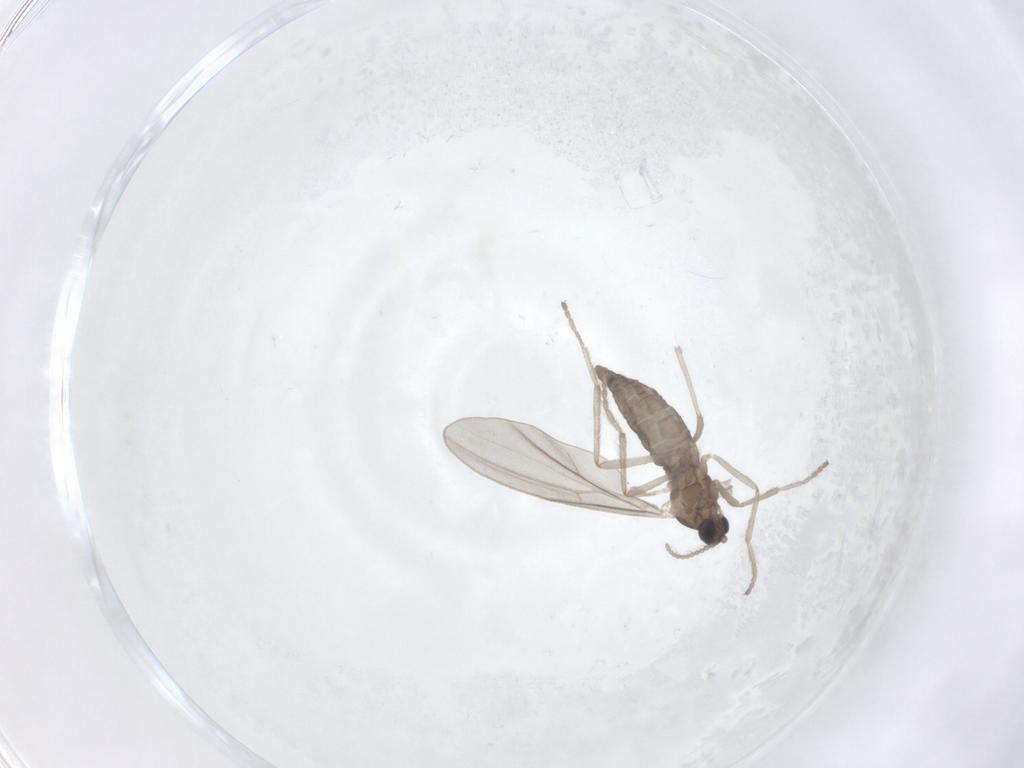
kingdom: Animalia
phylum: Arthropoda
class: Insecta
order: Diptera
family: Cecidomyiidae
